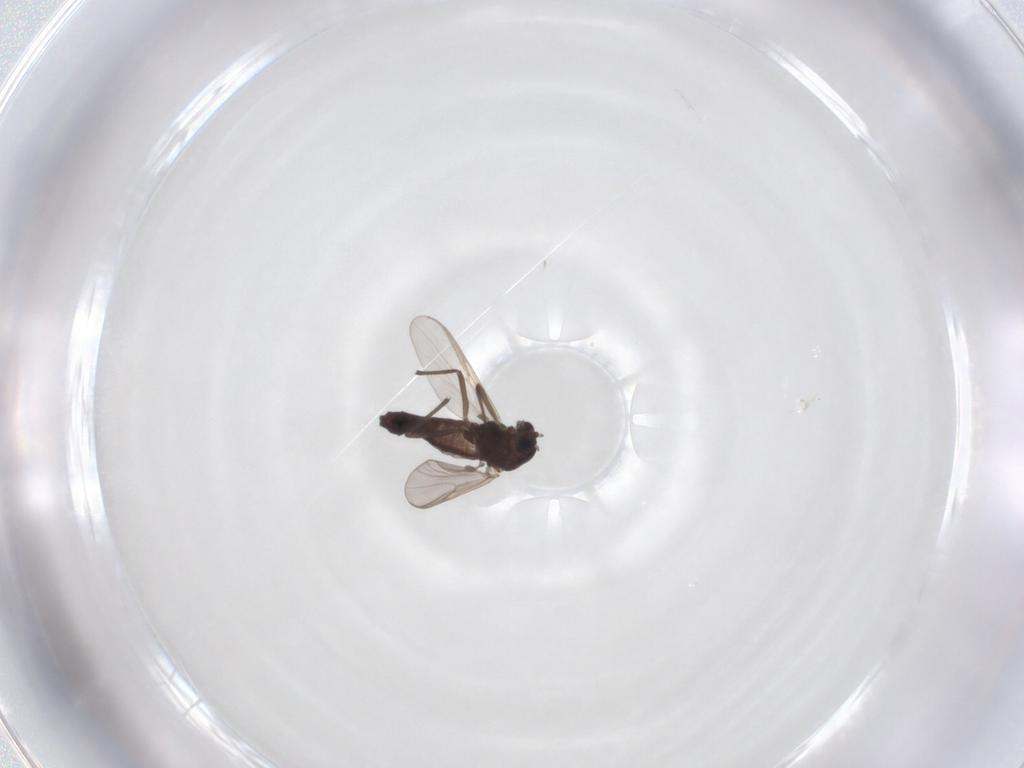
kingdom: Animalia
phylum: Arthropoda
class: Insecta
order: Diptera
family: Chironomidae
